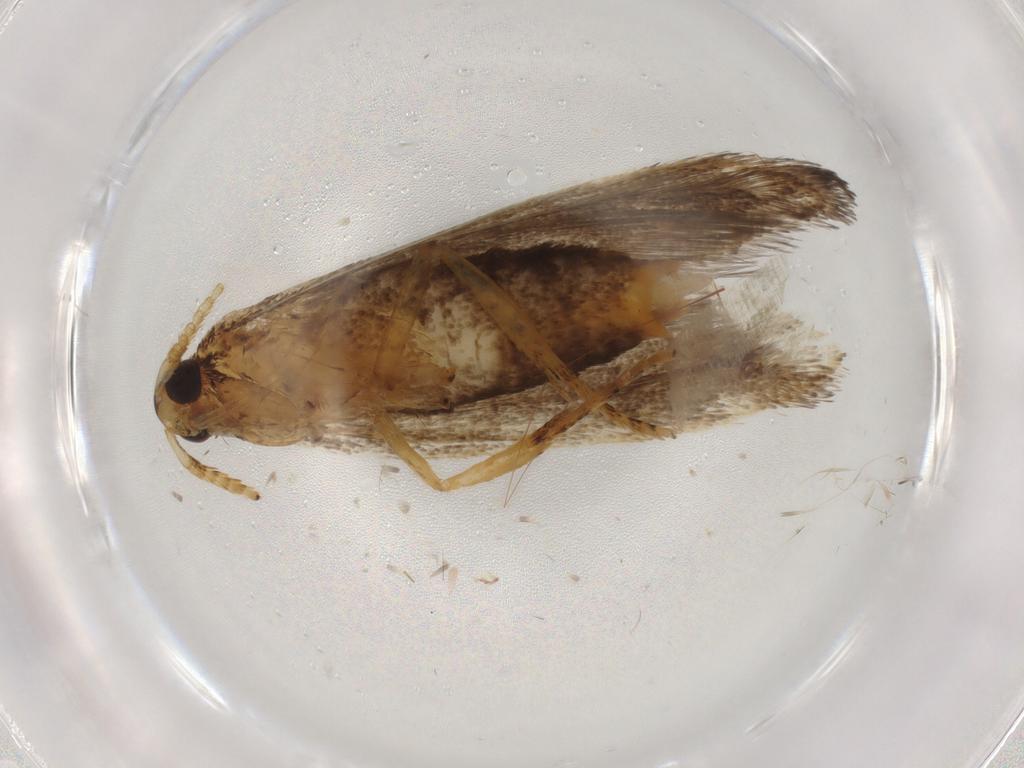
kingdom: Animalia
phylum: Arthropoda
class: Insecta
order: Lepidoptera
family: Lecithoceridae
